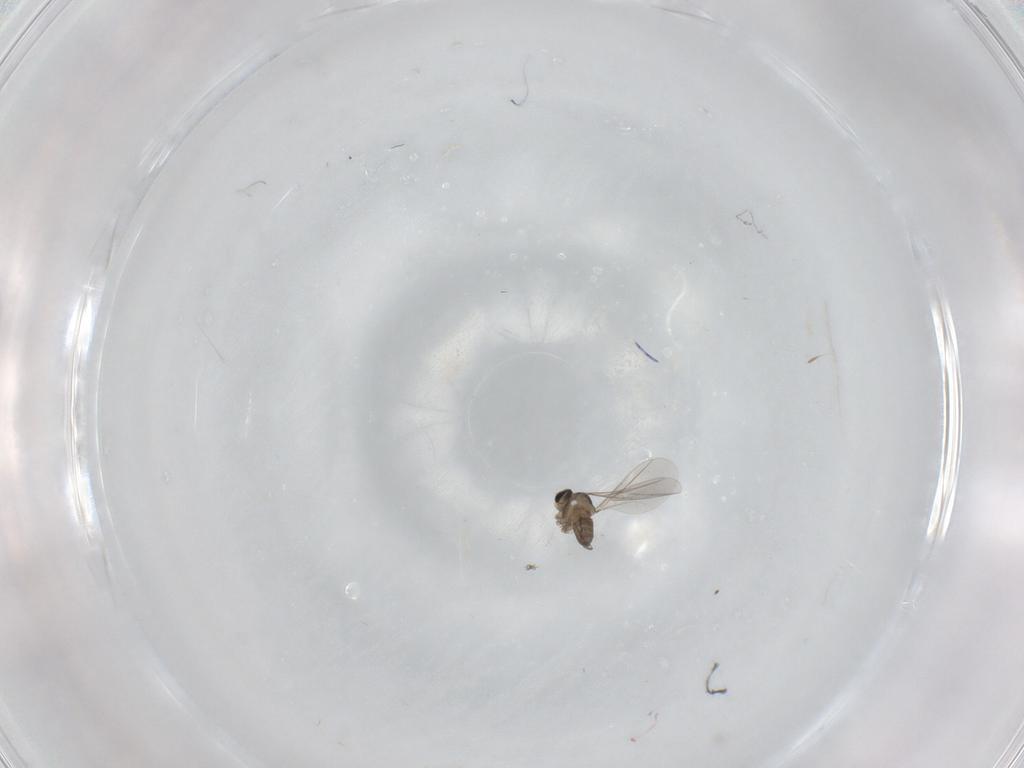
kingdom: Animalia
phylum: Arthropoda
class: Insecta
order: Diptera
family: Cecidomyiidae
